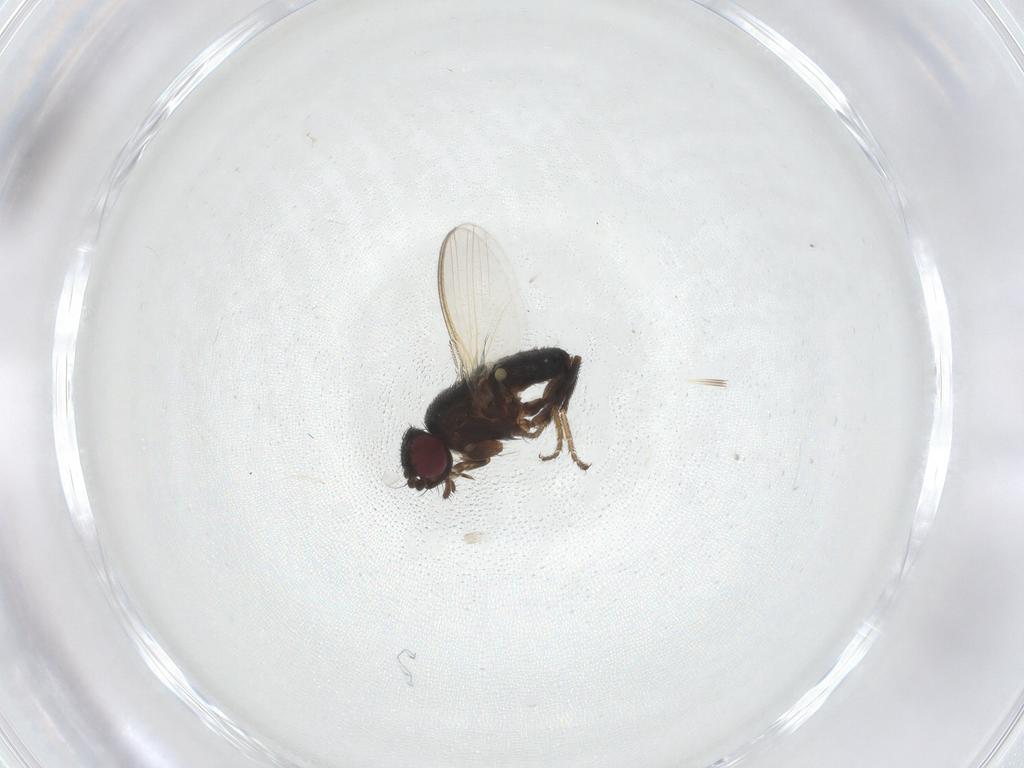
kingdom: Animalia
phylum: Arthropoda
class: Insecta
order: Diptera
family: Milichiidae
